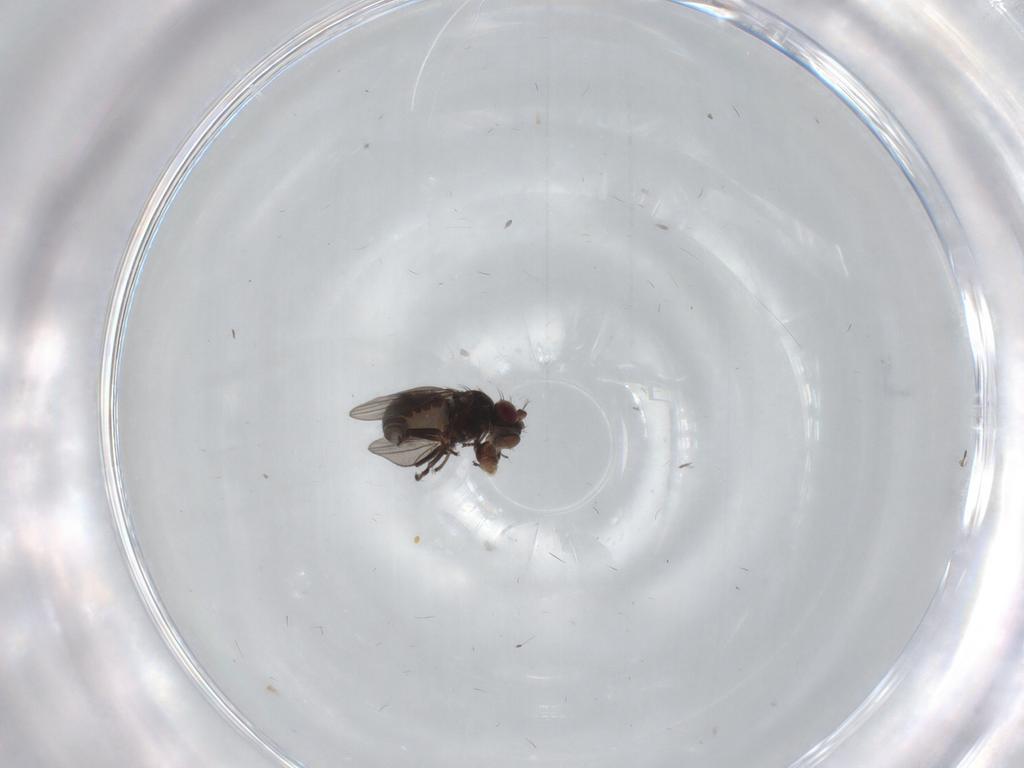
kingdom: Animalia
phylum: Arthropoda
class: Insecta
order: Diptera
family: Ephydridae
